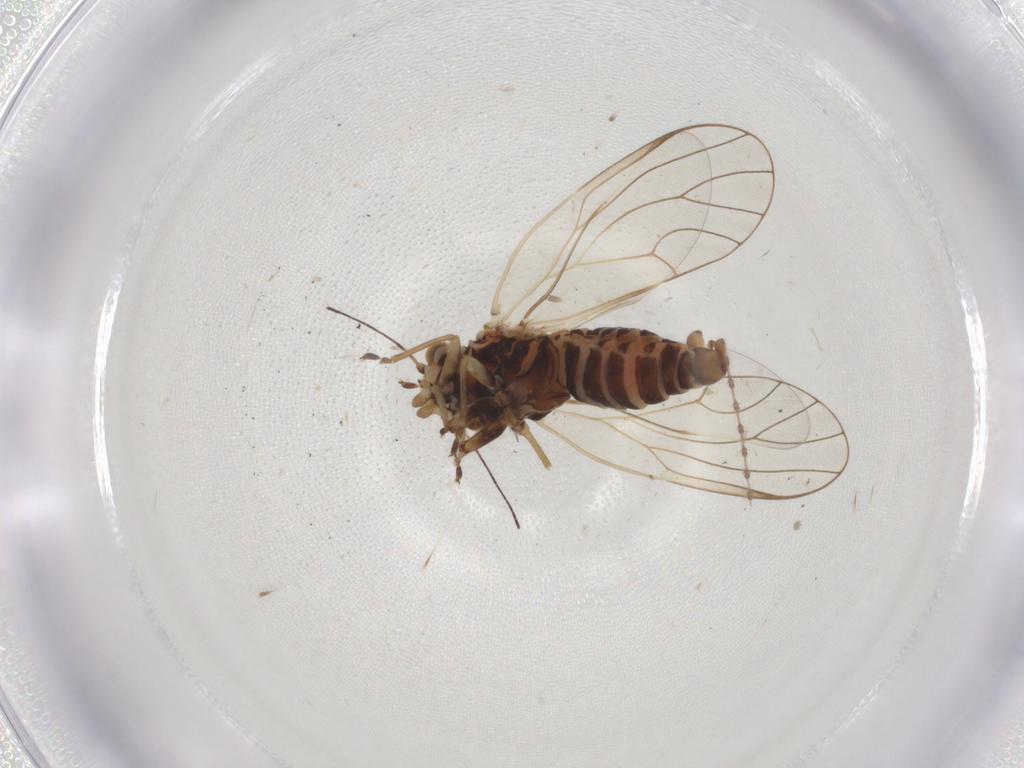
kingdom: Animalia
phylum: Arthropoda
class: Insecta
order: Hemiptera
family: Psyllidae
